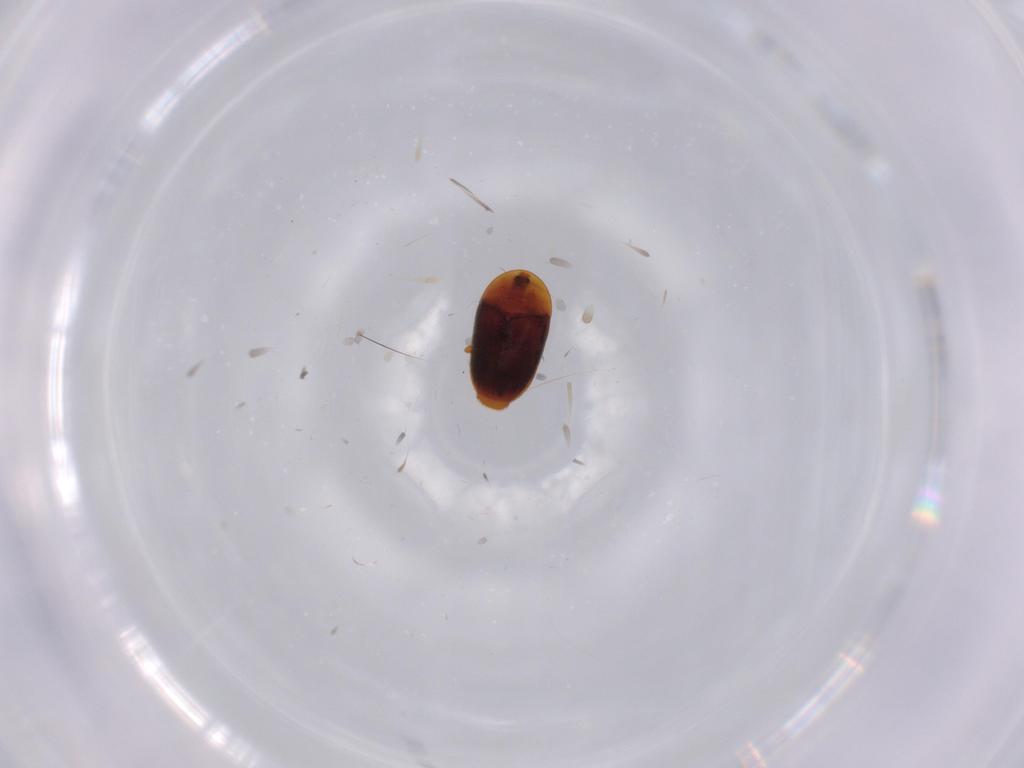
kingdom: Animalia
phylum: Arthropoda
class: Insecta
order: Coleoptera
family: Corylophidae
